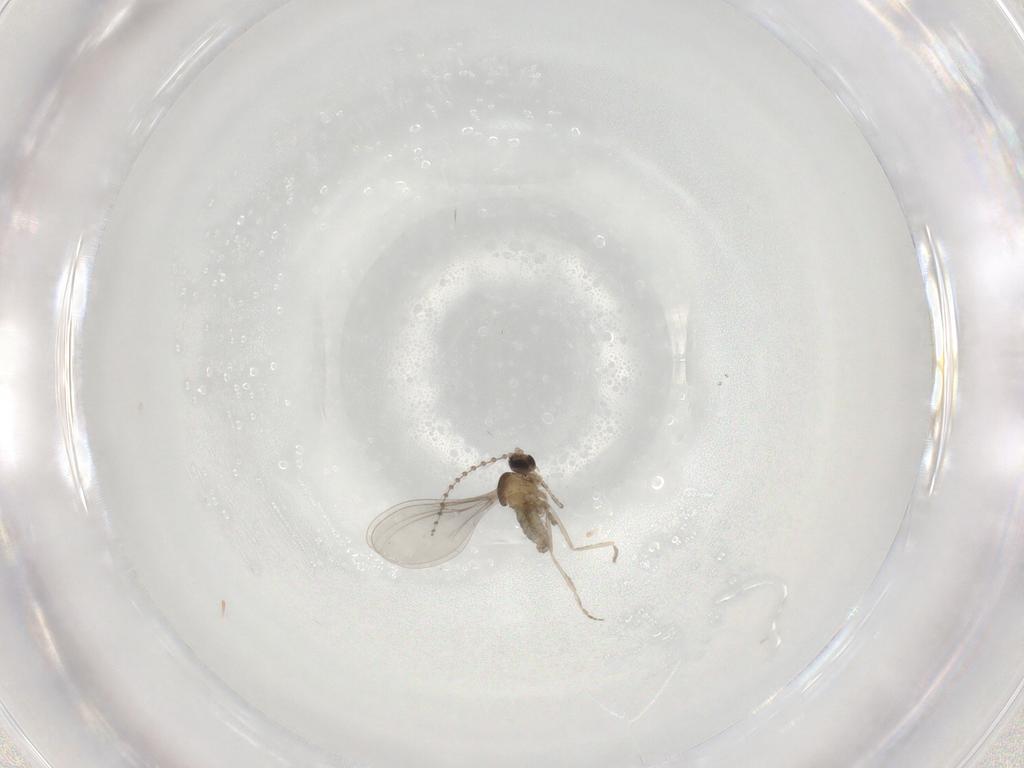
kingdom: Animalia
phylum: Arthropoda
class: Insecta
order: Diptera
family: Cecidomyiidae
